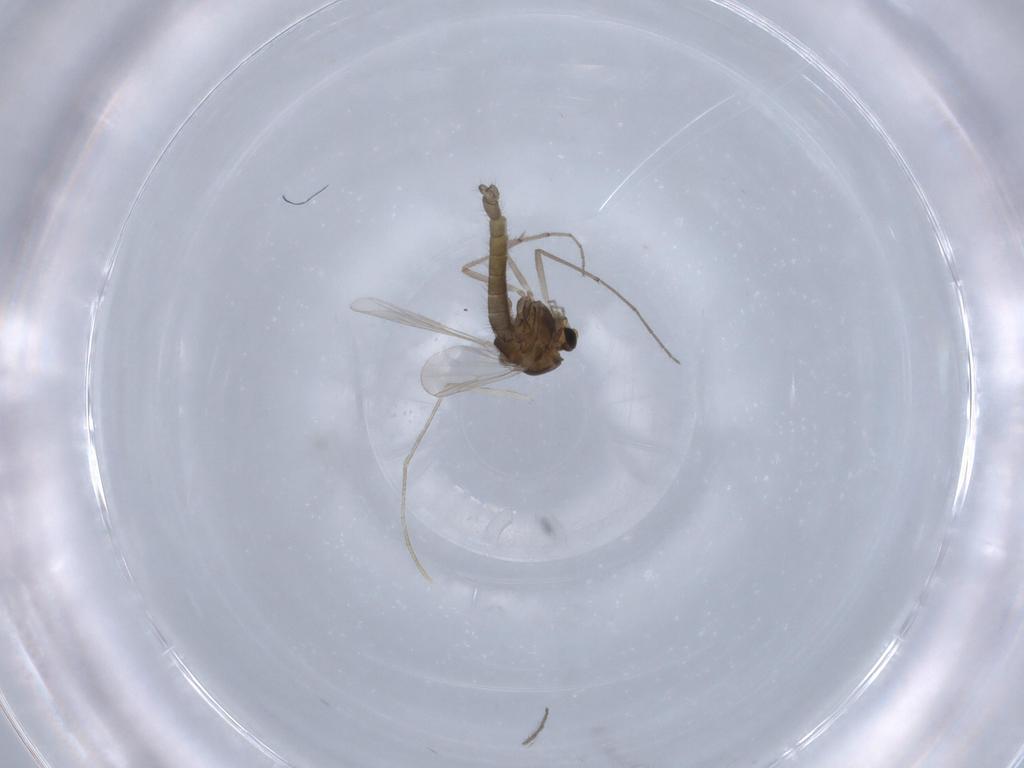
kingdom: Animalia
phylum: Arthropoda
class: Insecta
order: Diptera
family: Chironomidae
